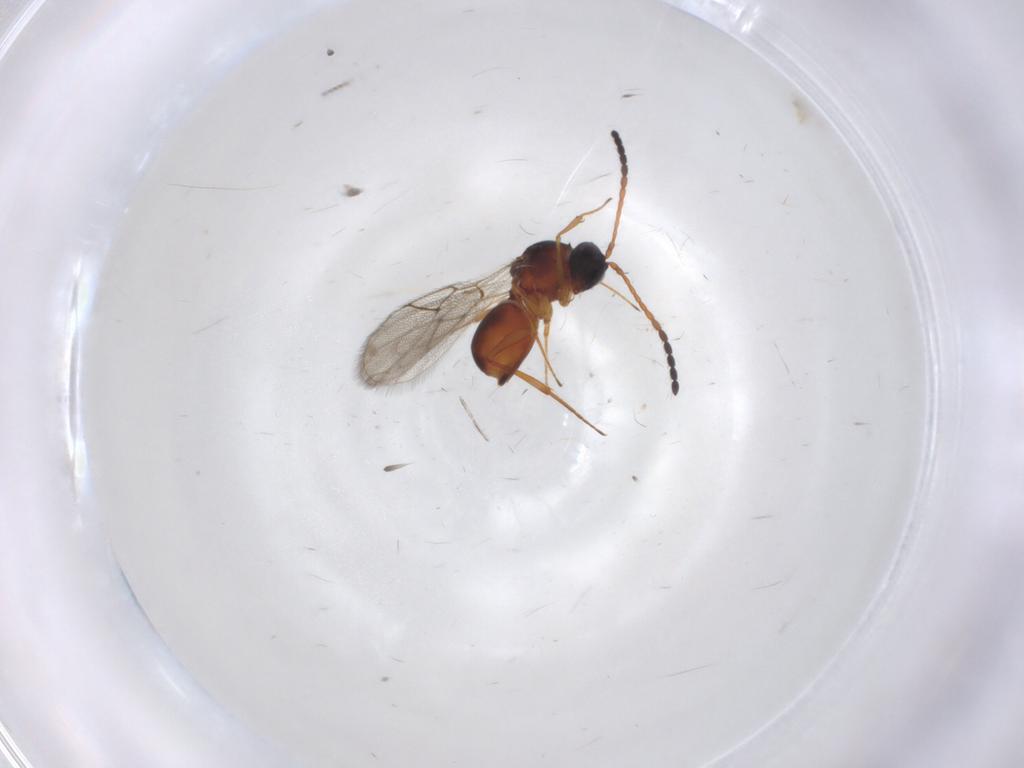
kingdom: Animalia
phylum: Arthropoda
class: Insecta
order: Hymenoptera
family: Figitidae
